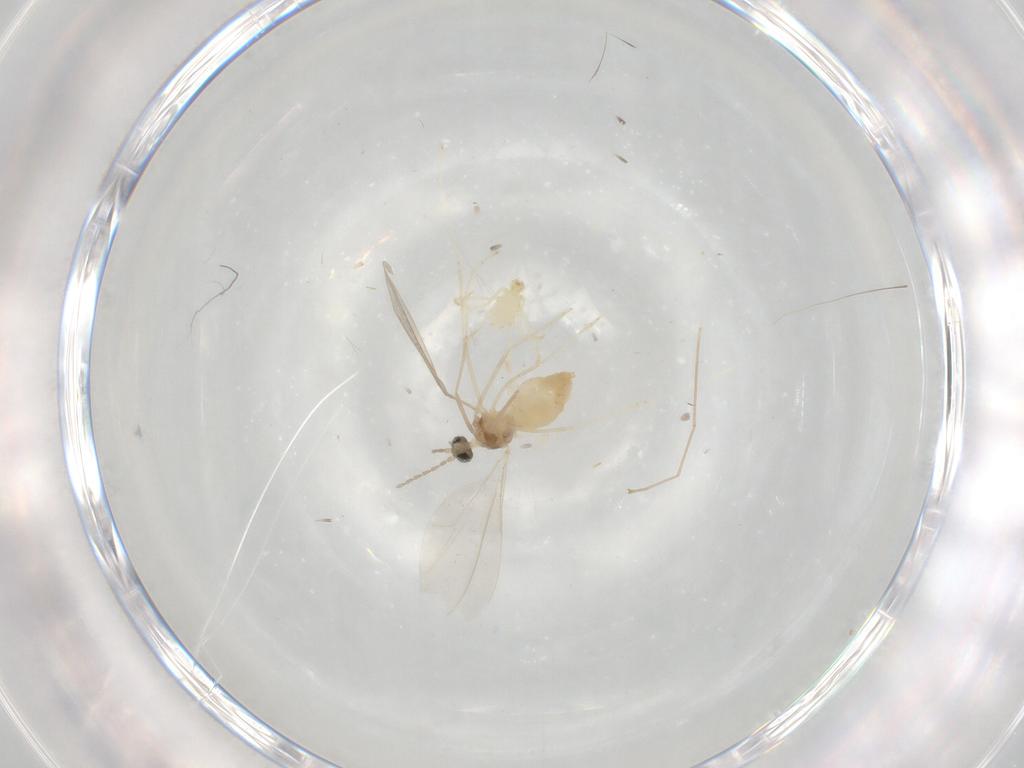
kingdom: Animalia
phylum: Arthropoda
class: Insecta
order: Diptera
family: Cecidomyiidae
